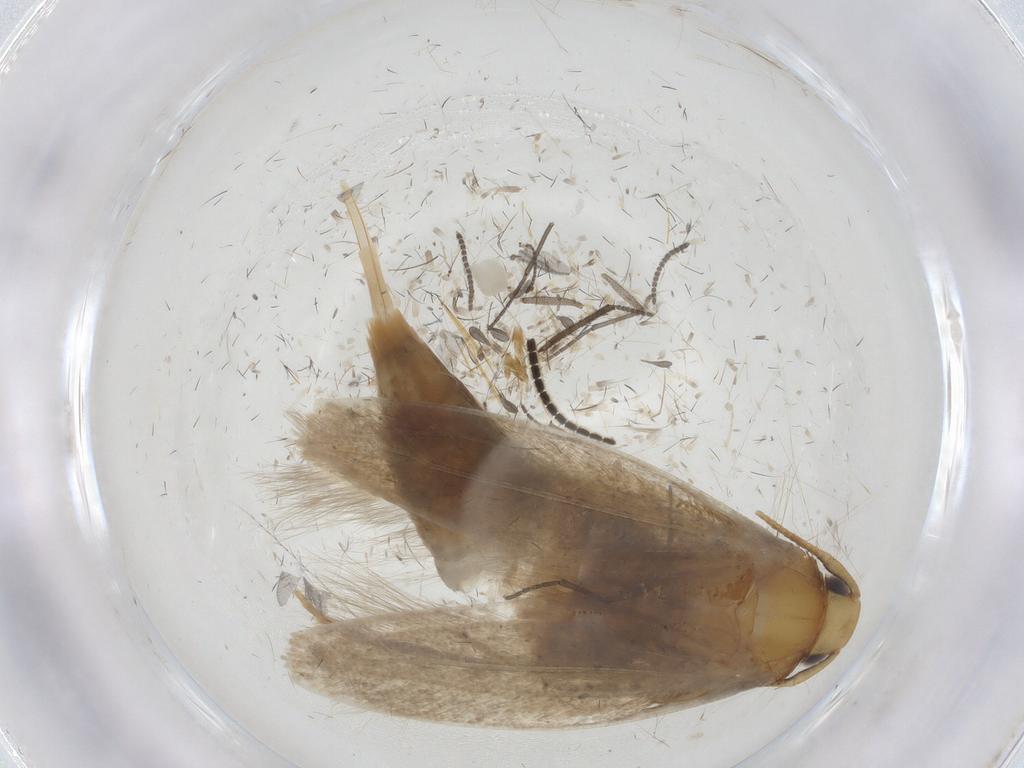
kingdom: Animalia
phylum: Arthropoda
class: Insecta
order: Lepidoptera
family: Tineidae
